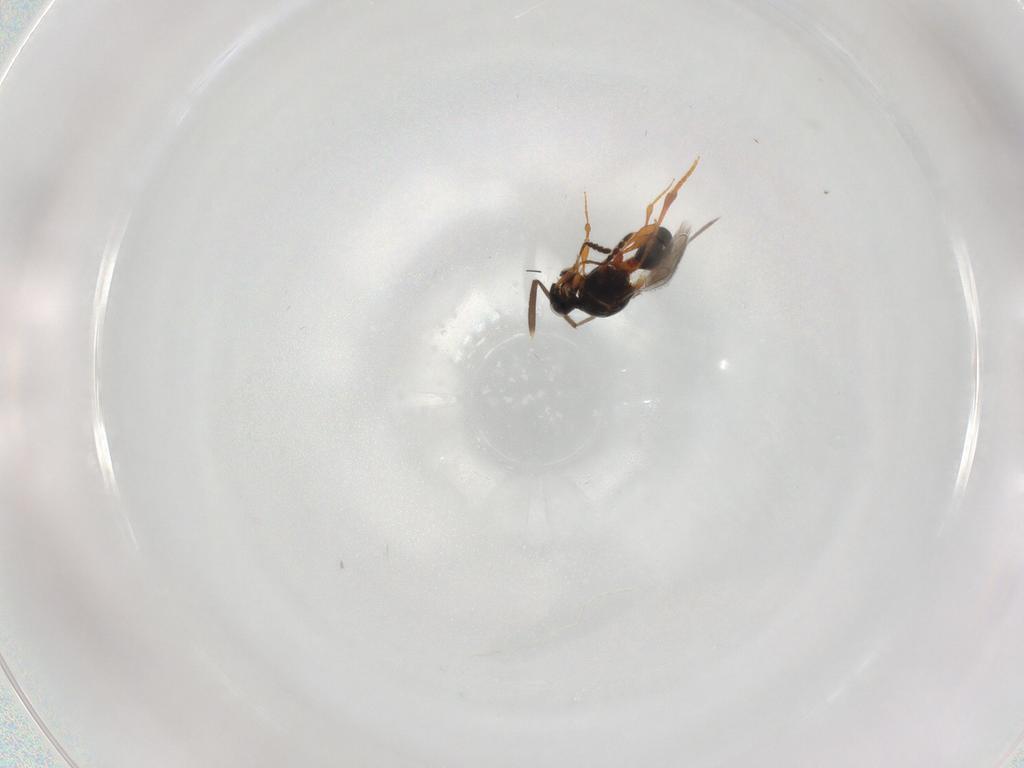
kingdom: Animalia
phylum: Arthropoda
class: Insecta
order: Hymenoptera
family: Platygastridae
